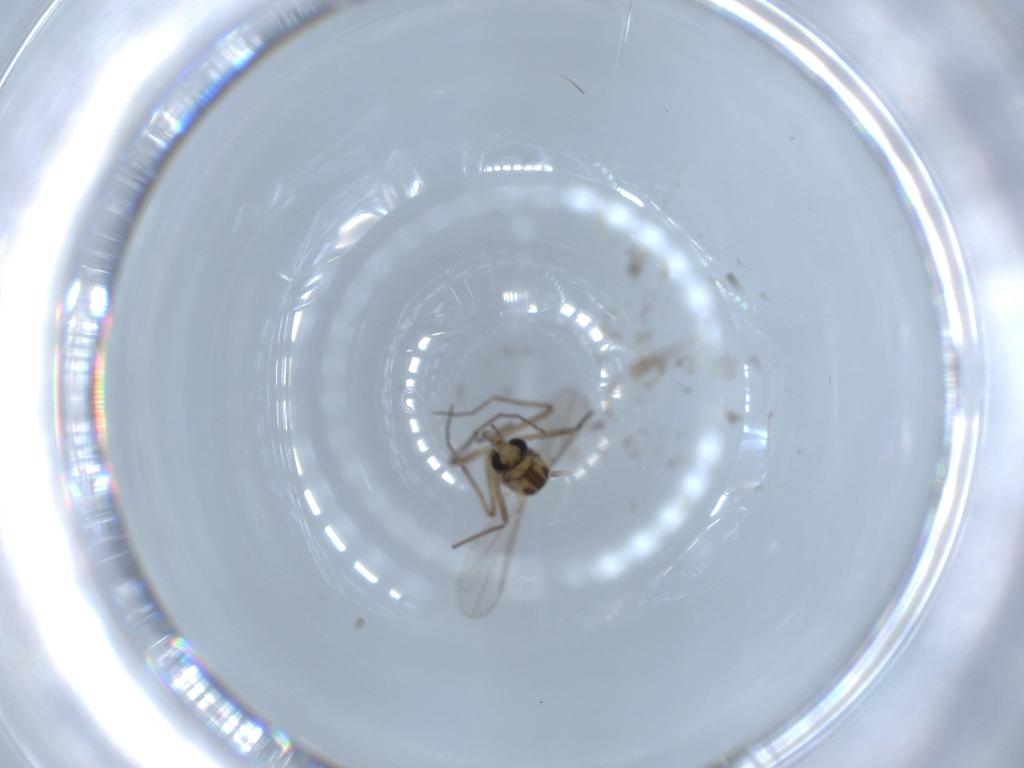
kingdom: Animalia
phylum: Arthropoda
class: Insecta
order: Diptera
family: Chironomidae
